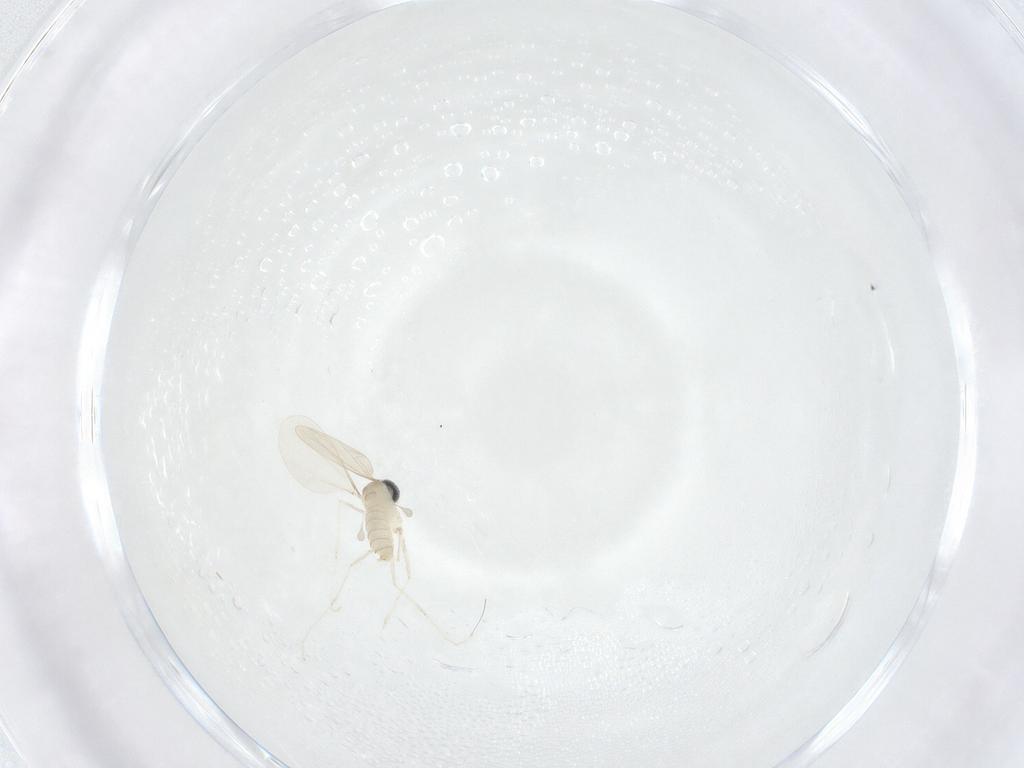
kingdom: Animalia
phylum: Arthropoda
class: Insecta
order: Diptera
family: Cecidomyiidae
